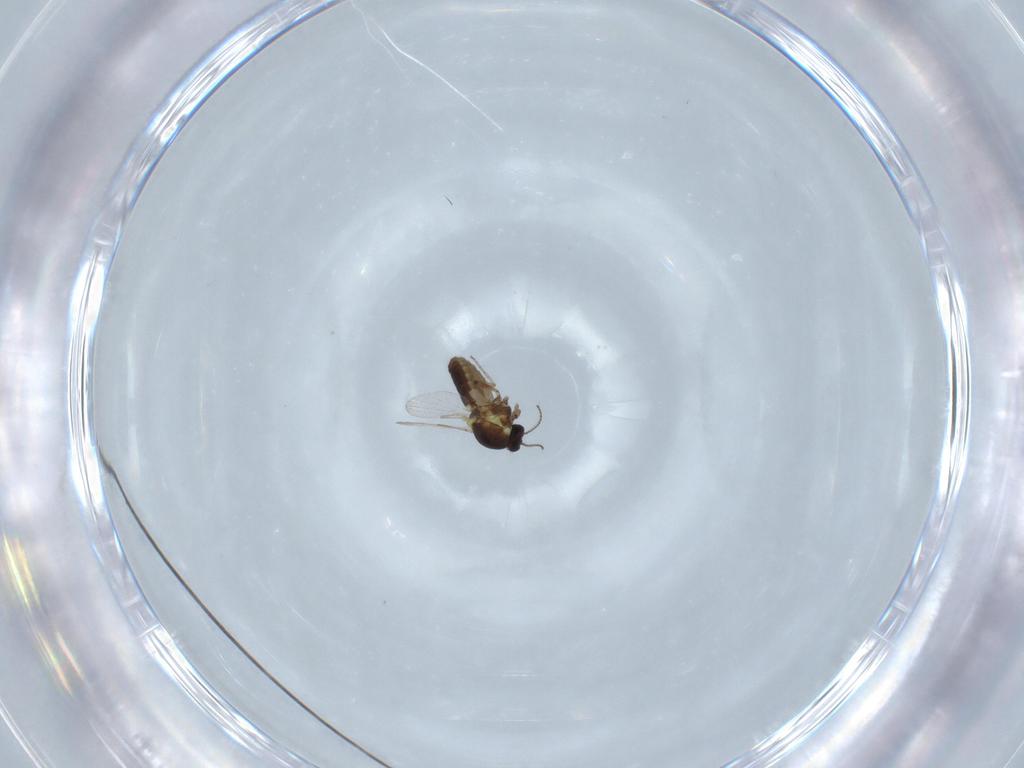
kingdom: Animalia
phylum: Arthropoda
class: Insecta
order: Diptera
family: Ceratopogonidae
